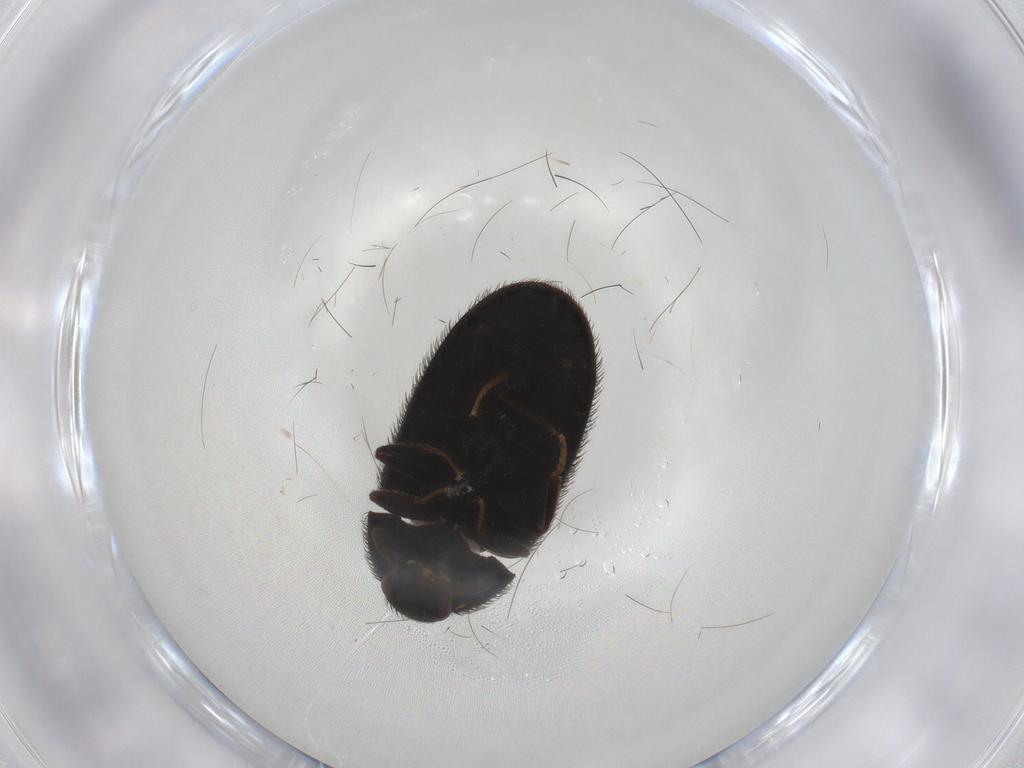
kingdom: Animalia
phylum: Arthropoda
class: Insecta
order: Coleoptera
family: Dermestidae
